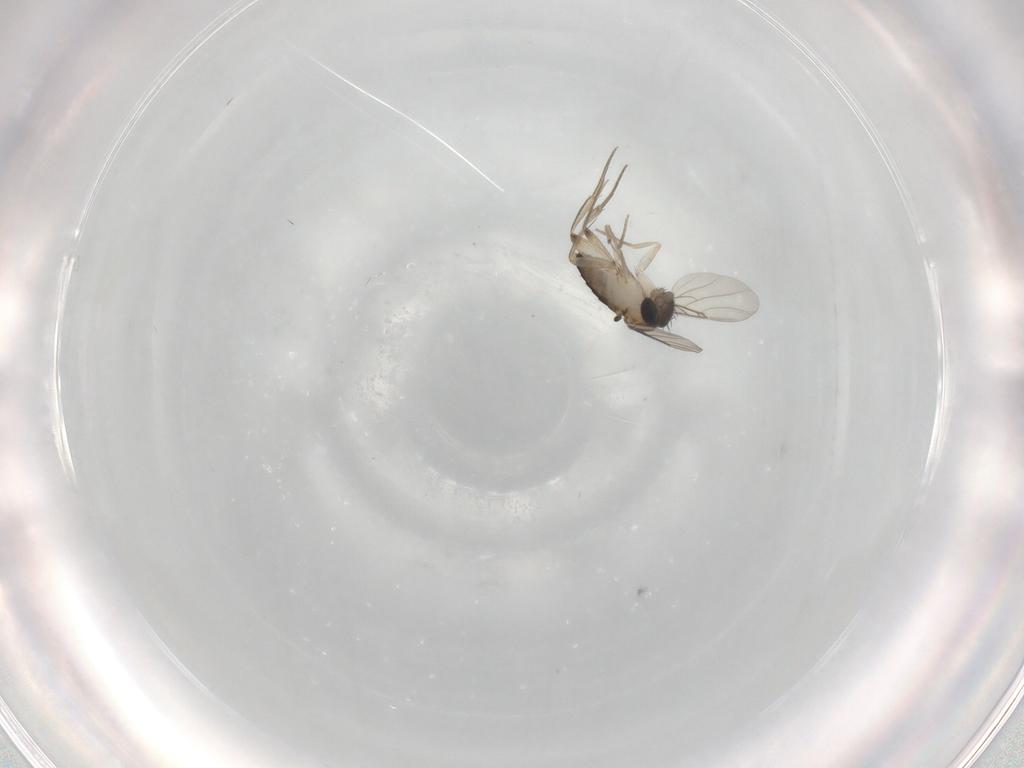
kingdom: Animalia
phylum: Arthropoda
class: Insecta
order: Diptera
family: Phoridae
